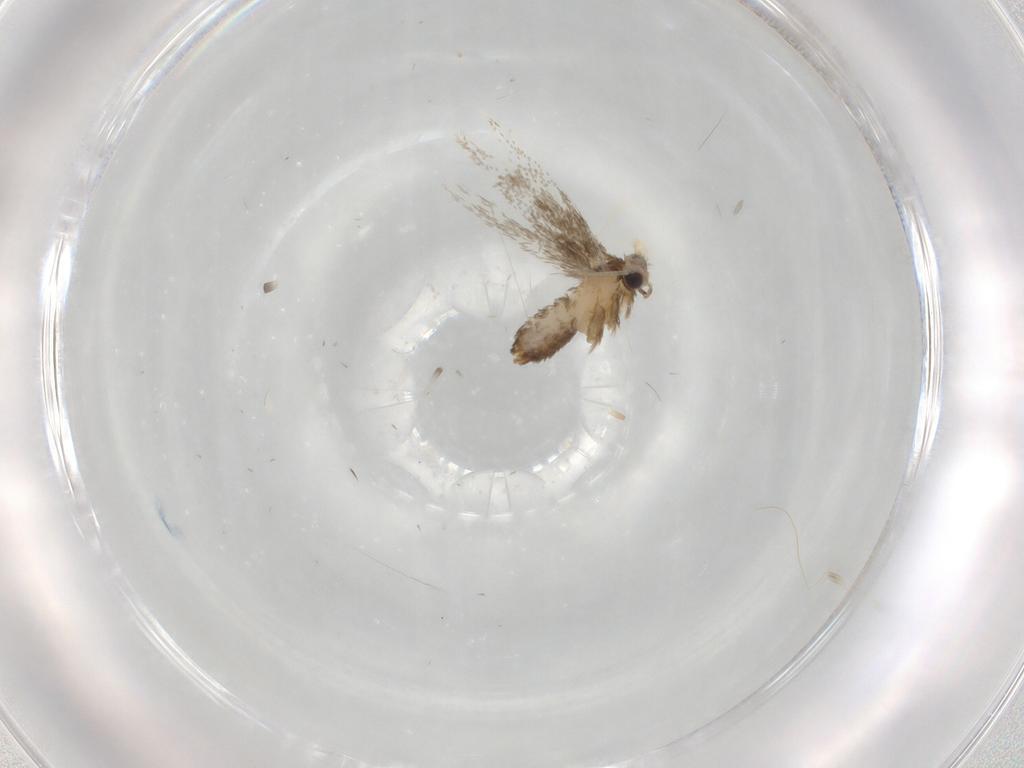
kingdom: Animalia
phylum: Arthropoda
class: Insecta
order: Lepidoptera
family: Nepticulidae
